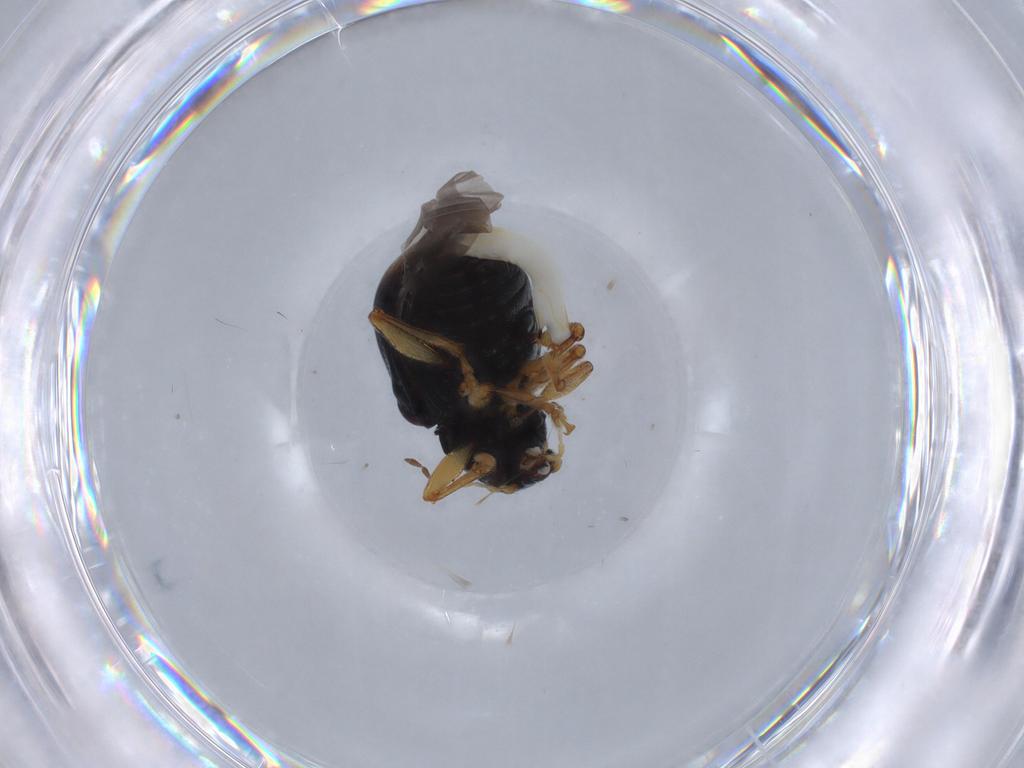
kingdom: Animalia
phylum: Arthropoda
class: Insecta
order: Coleoptera
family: Chrysomelidae
